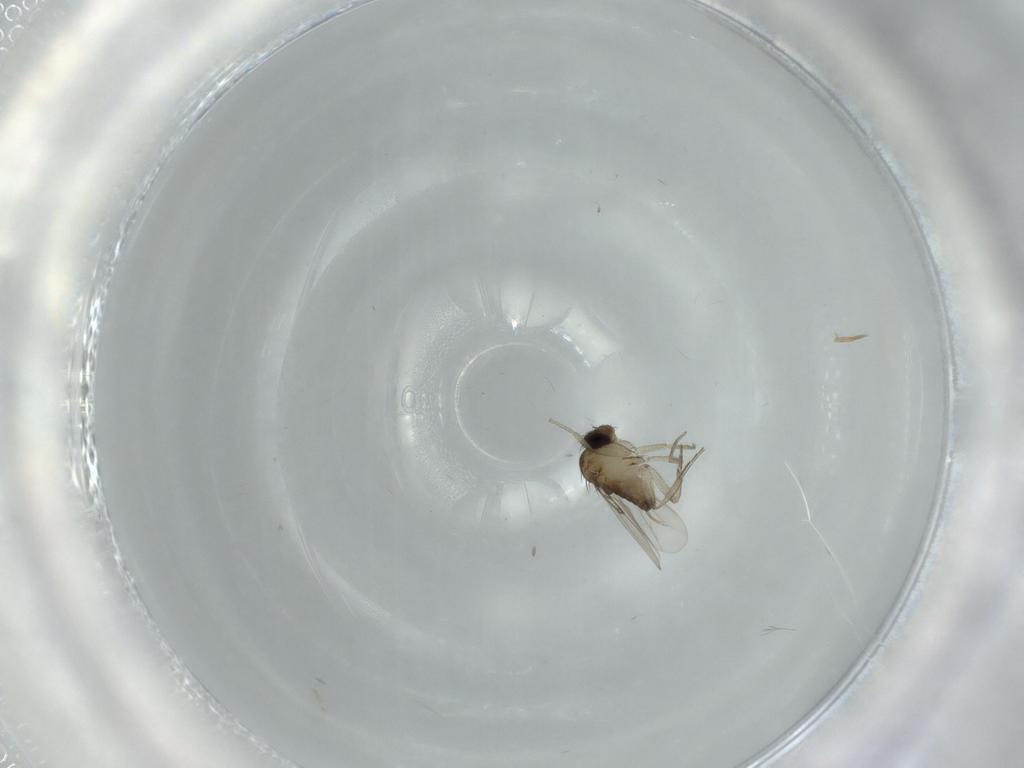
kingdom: Animalia
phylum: Arthropoda
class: Insecta
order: Diptera
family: Phoridae
